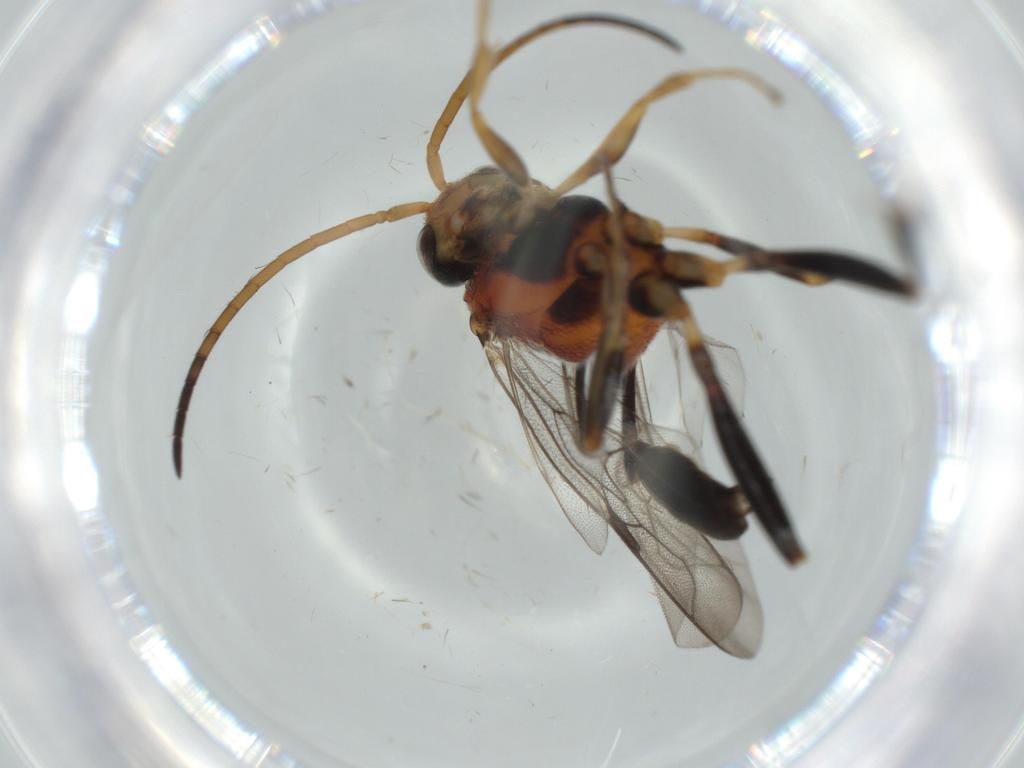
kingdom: Animalia
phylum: Arthropoda
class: Insecta
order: Hymenoptera
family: Evaniidae
